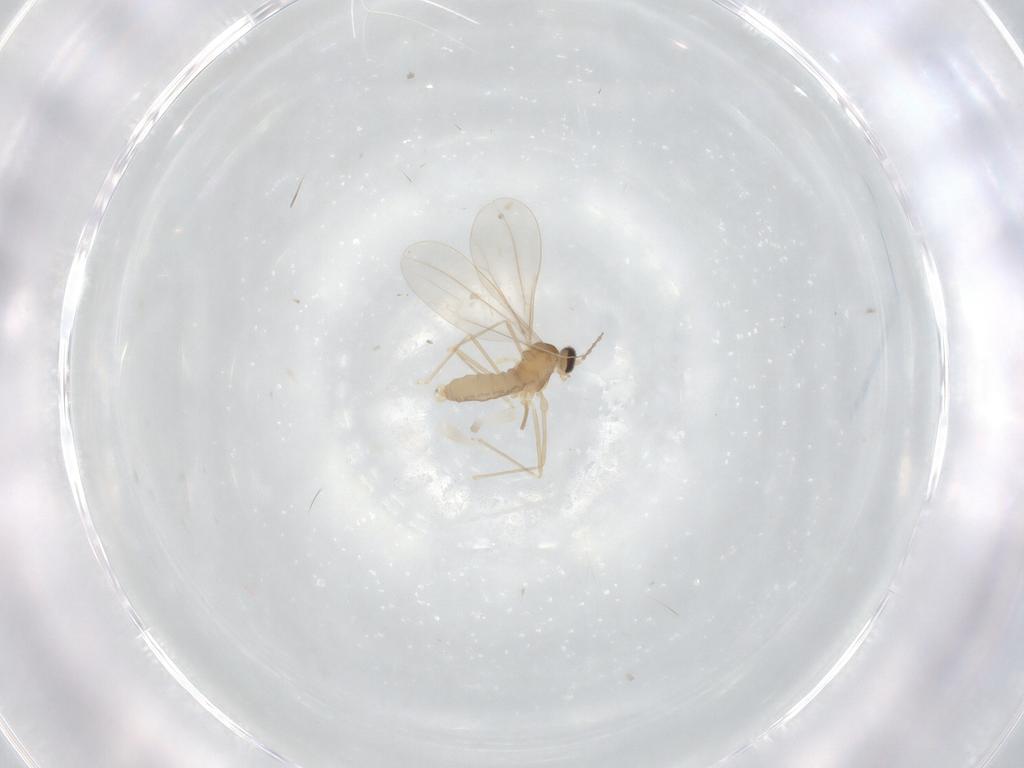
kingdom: Animalia
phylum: Arthropoda
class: Insecta
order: Diptera
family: Cecidomyiidae
